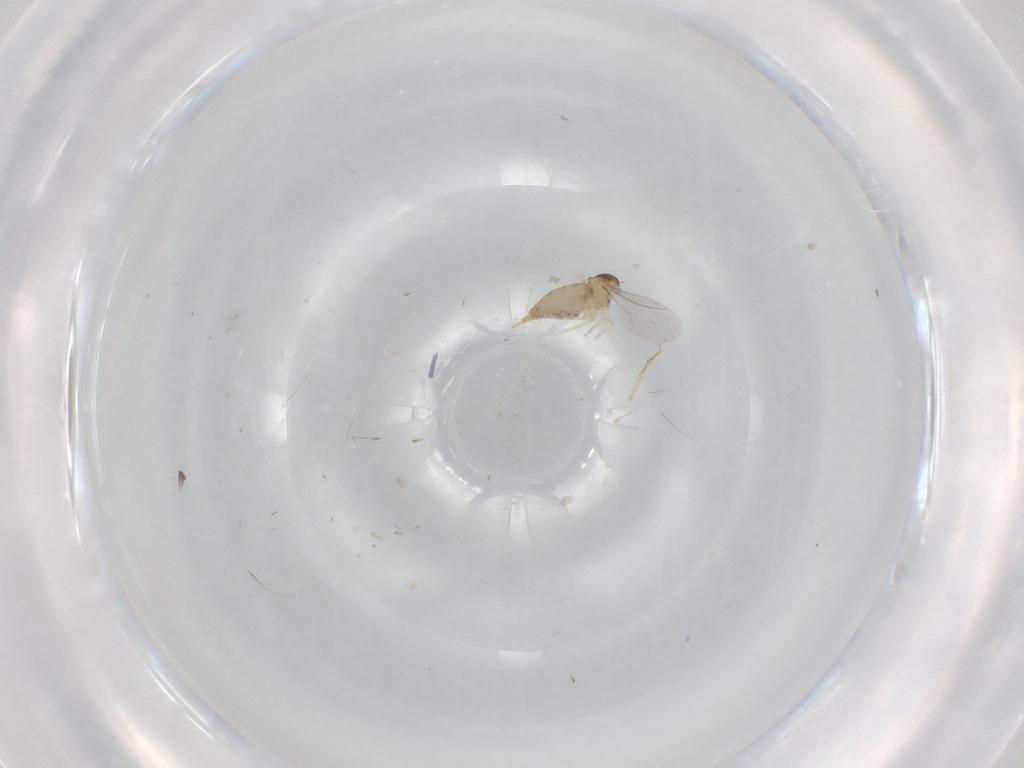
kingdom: Animalia
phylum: Arthropoda
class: Insecta
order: Diptera
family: Cecidomyiidae
